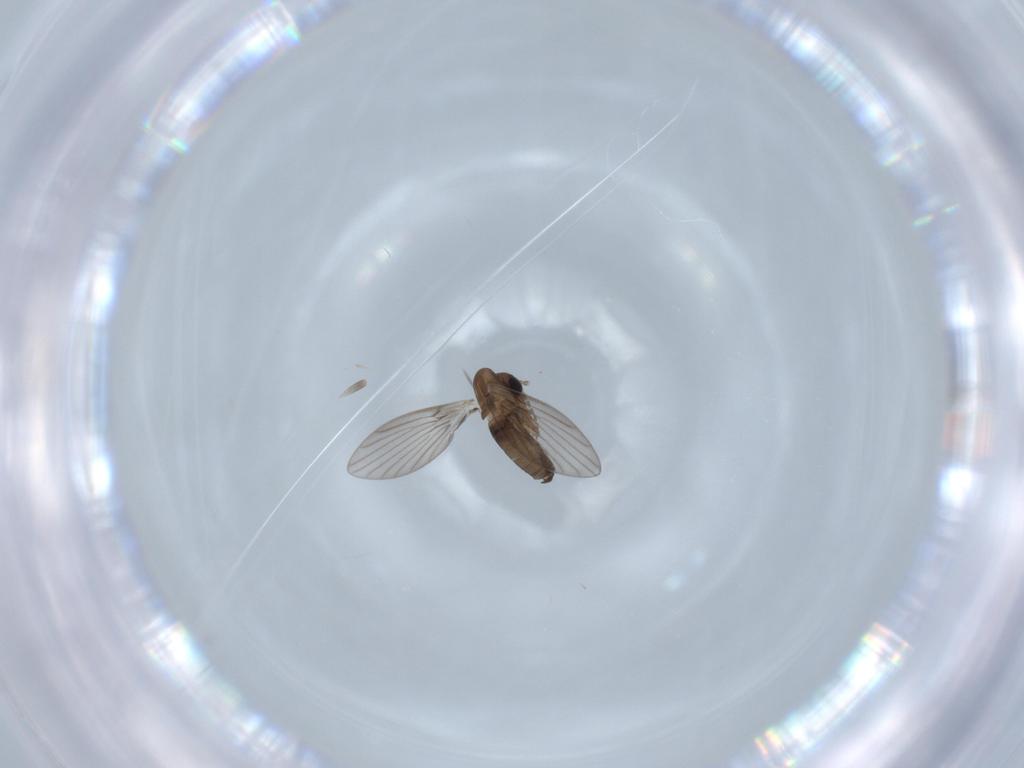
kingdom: Animalia
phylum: Arthropoda
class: Insecta
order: Diptera
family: Psychodidae
